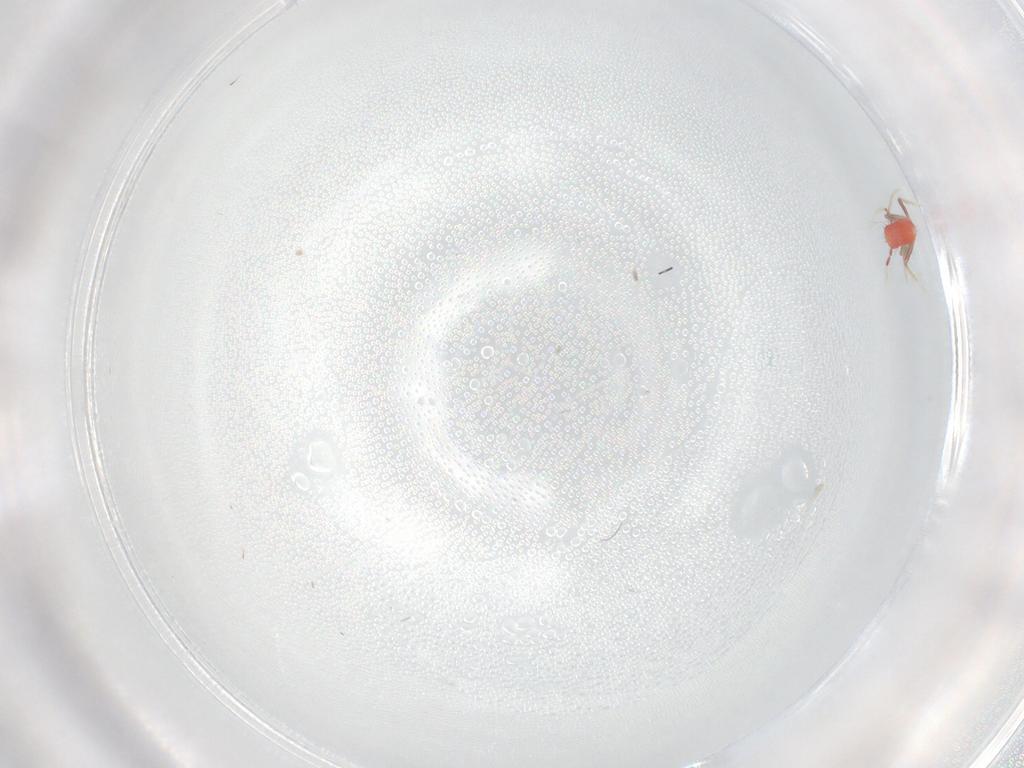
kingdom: Animalia
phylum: Arthropoda
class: Insecta
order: Hemiptera
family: Miridae
